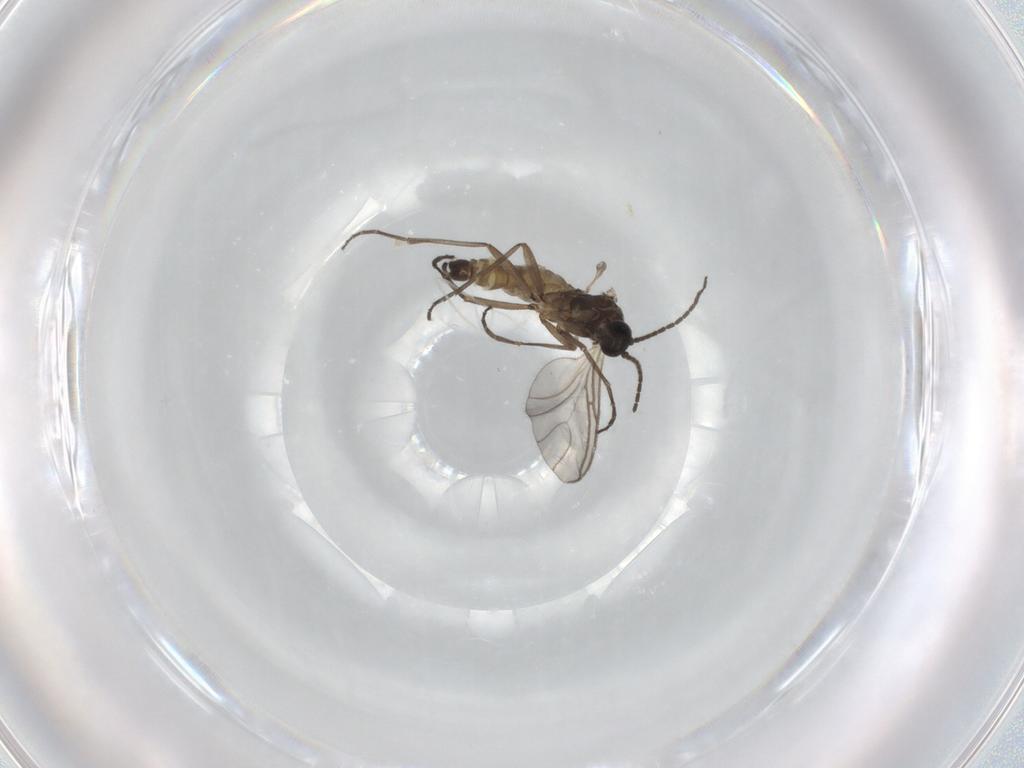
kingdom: Animalia
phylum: Arthropoda
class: Insecta
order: Diptera
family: Sciaridae
